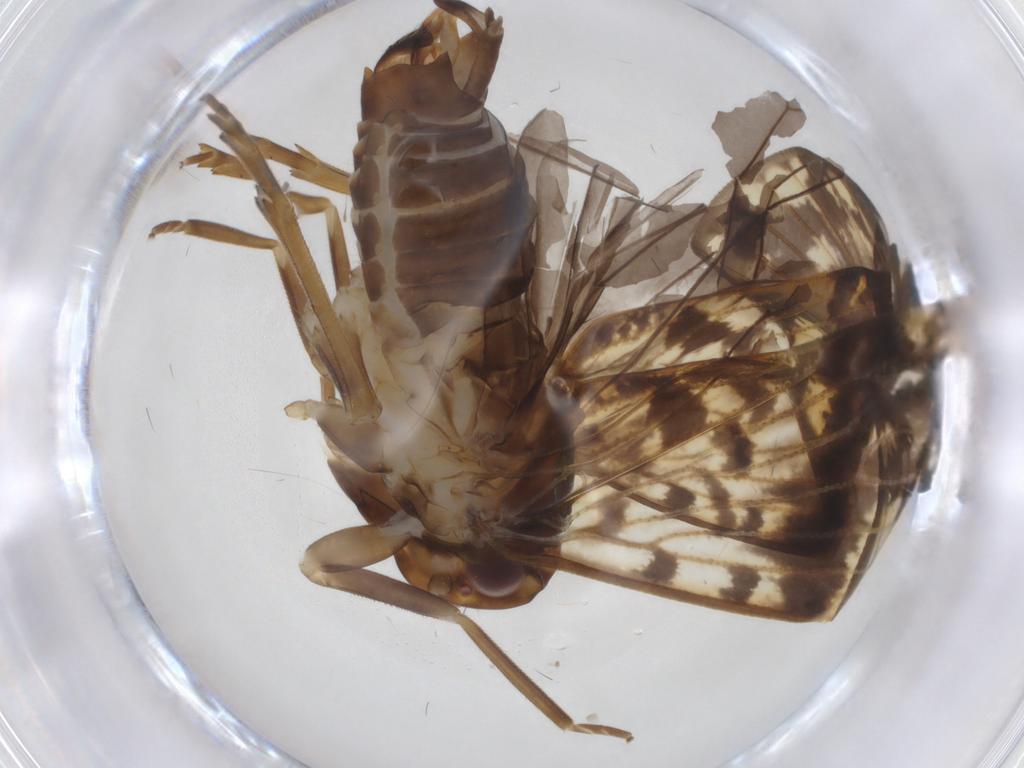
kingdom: Animalia
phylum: Arthropoda
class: Insecta
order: Hemiptera
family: Cixiidae
